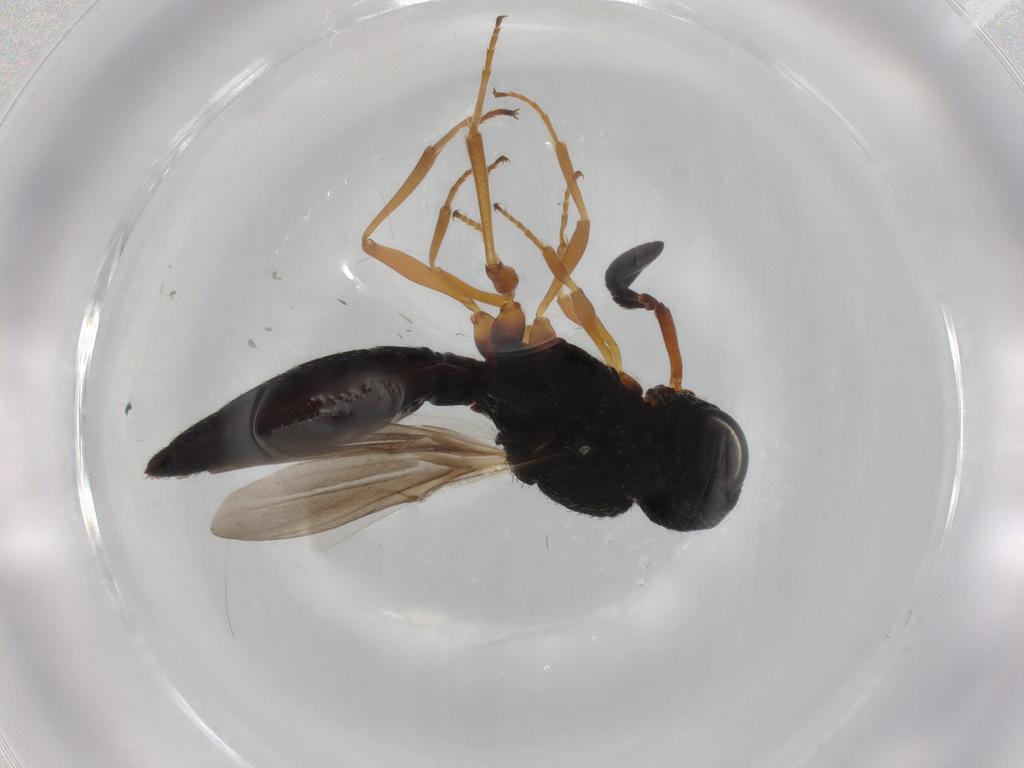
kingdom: Animalia
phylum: Arthropoda
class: Insecta
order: Hymenoptera
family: Scelionidae
